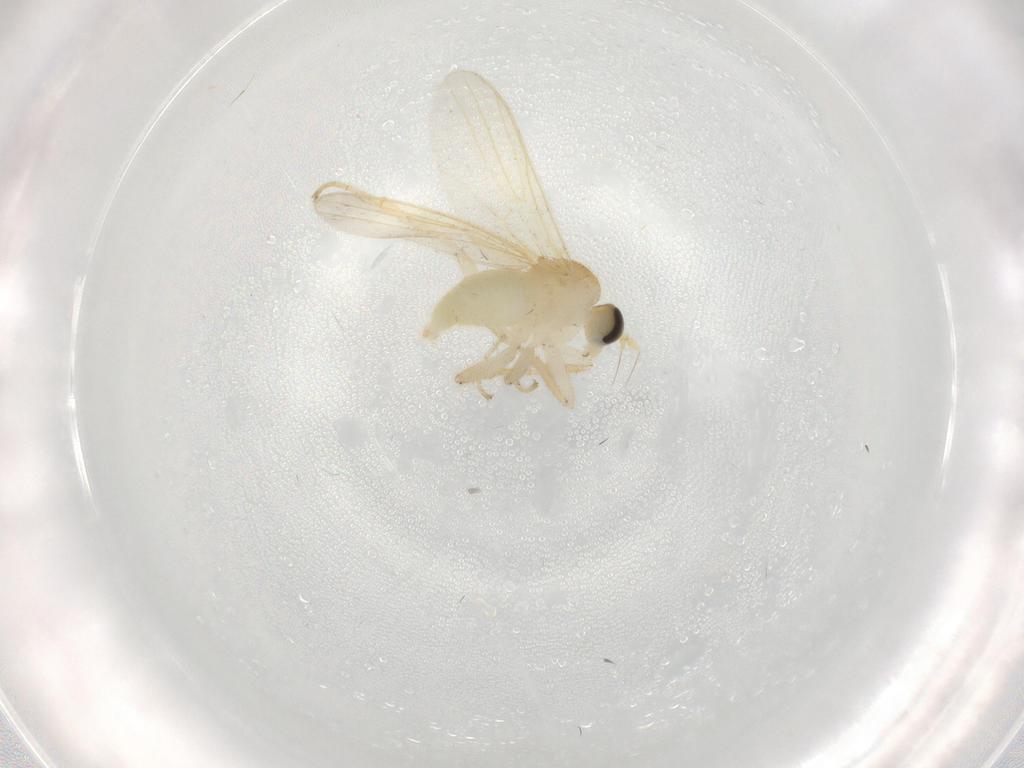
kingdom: Animalia
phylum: Arthropoda
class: Insecta
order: Diptera
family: Hybotidae
